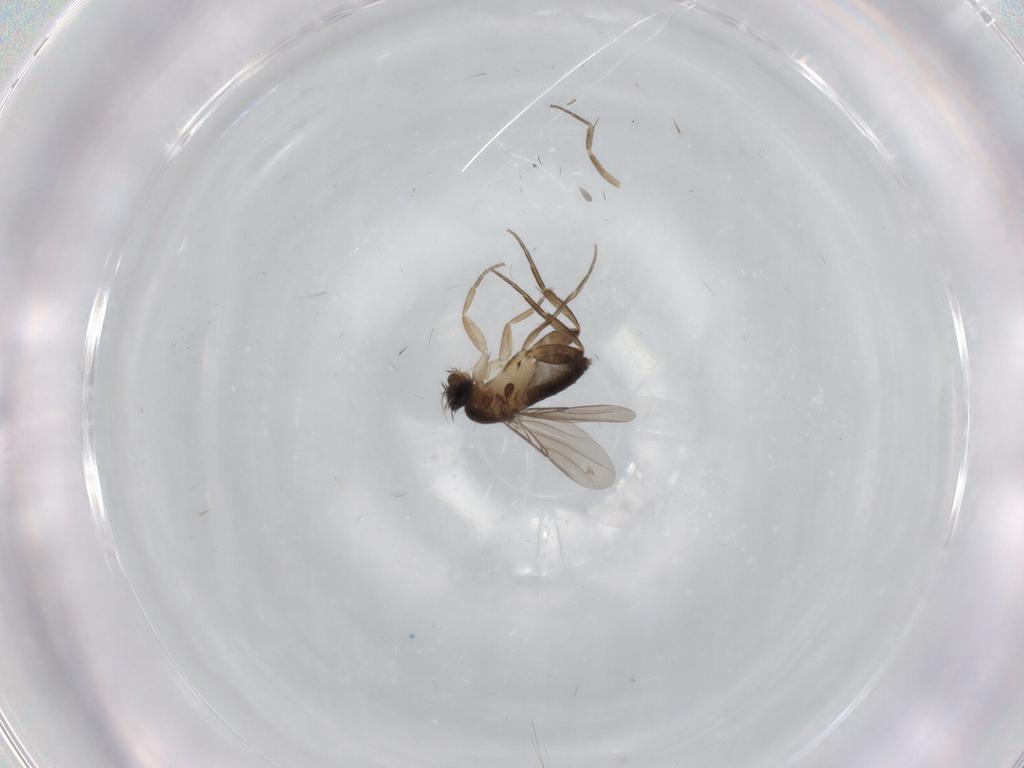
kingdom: Animalia
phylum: Arthropoda
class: Insecta
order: Diptera
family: Phoridae
